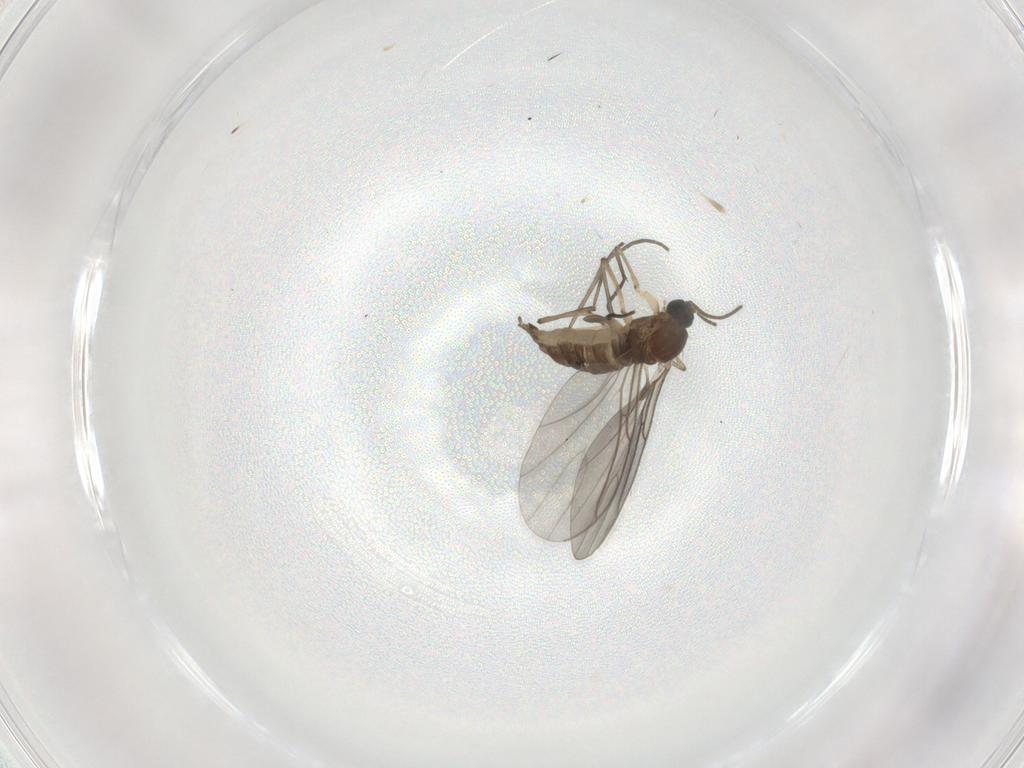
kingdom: Animalia
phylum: Arthropoda
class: Insecta
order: Diptera
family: Sciaridae
